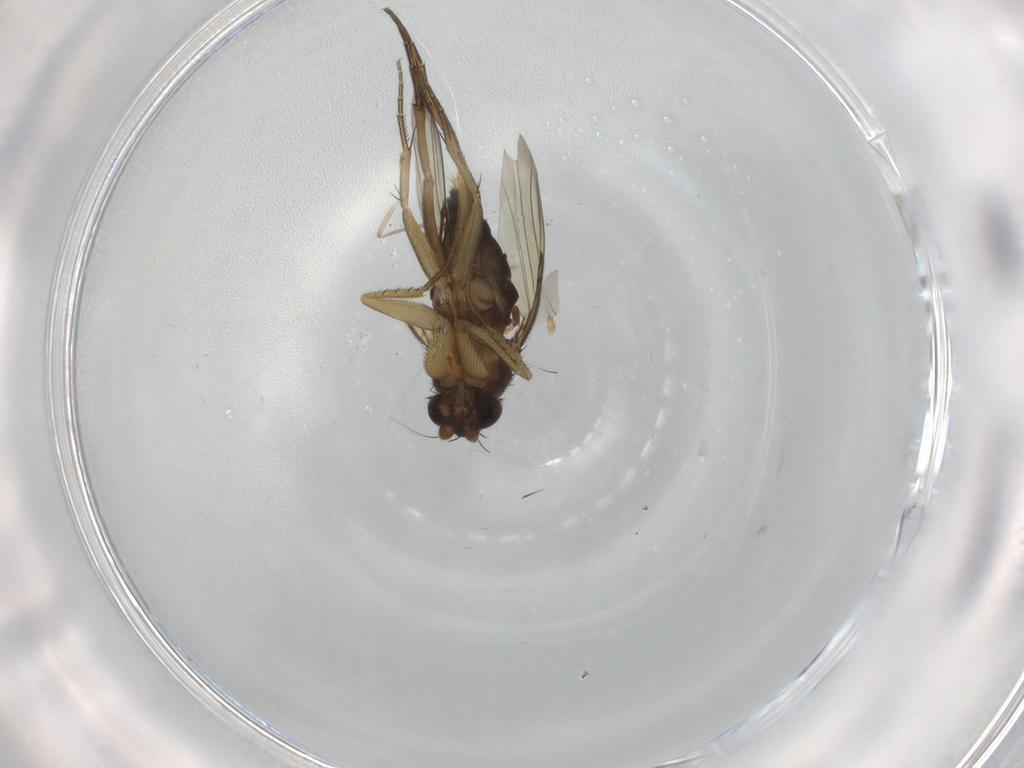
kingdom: Animalia
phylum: Arthropoda
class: Insecta
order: Diptera
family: Phoridae
